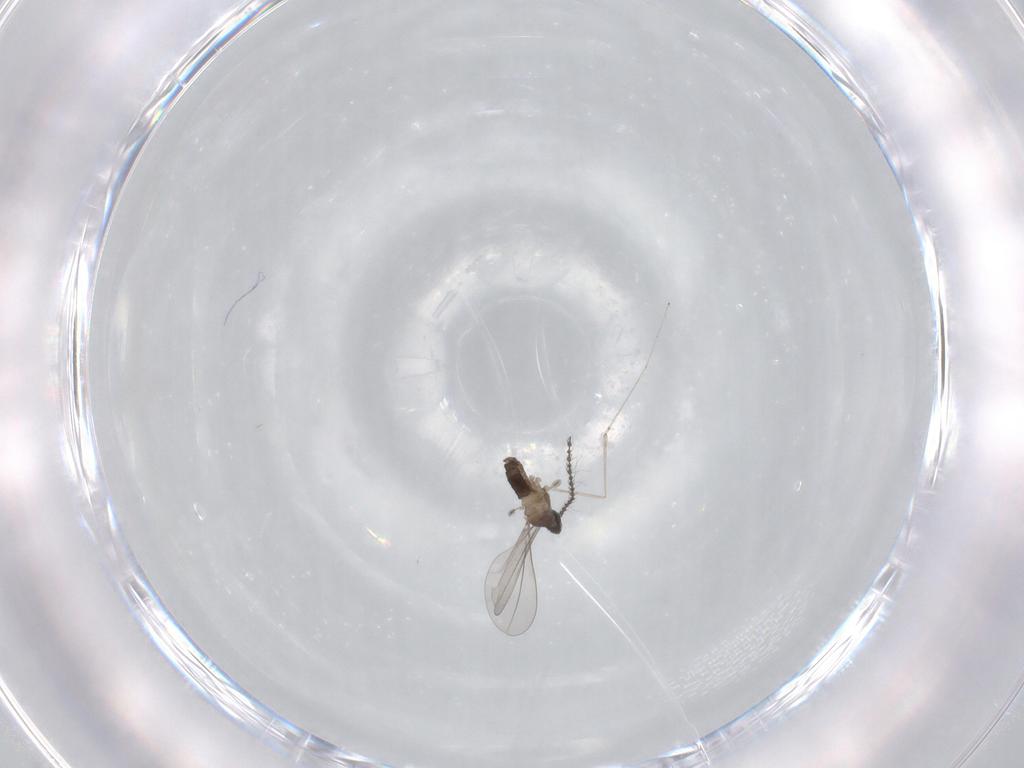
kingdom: Animalia
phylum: Arthropoda
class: Insecta
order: Diptera
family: Cecidomyiidae
